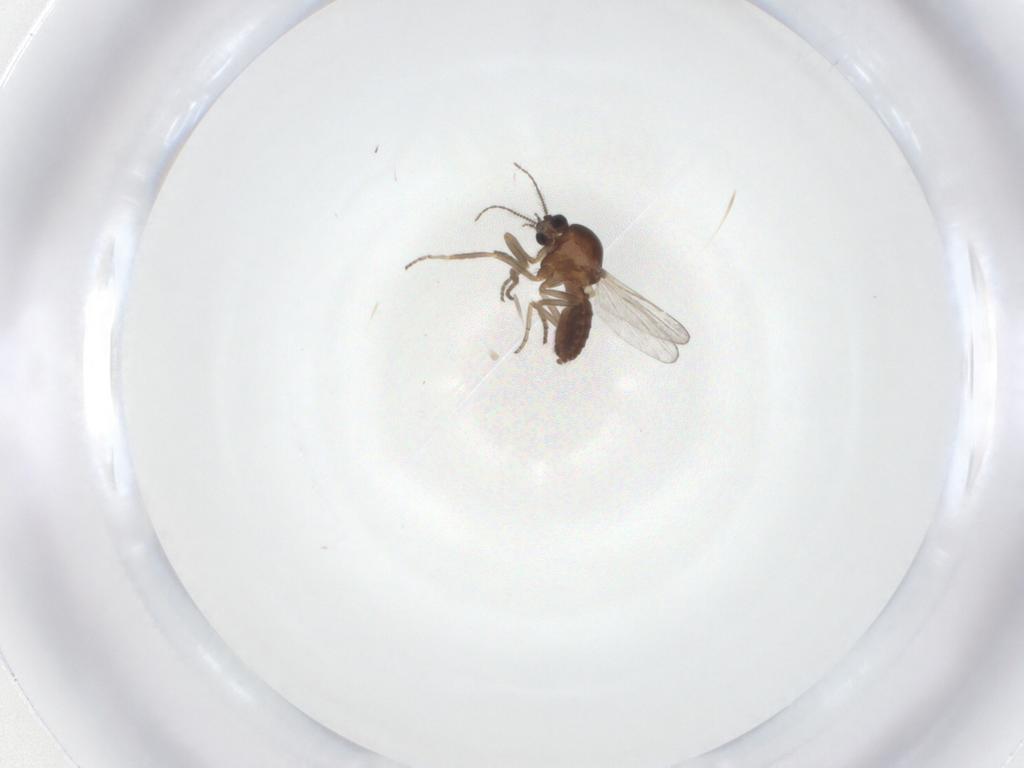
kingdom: Animalia
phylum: Arthropoda
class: Insecta
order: Diptera
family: Ceratopogonidae
